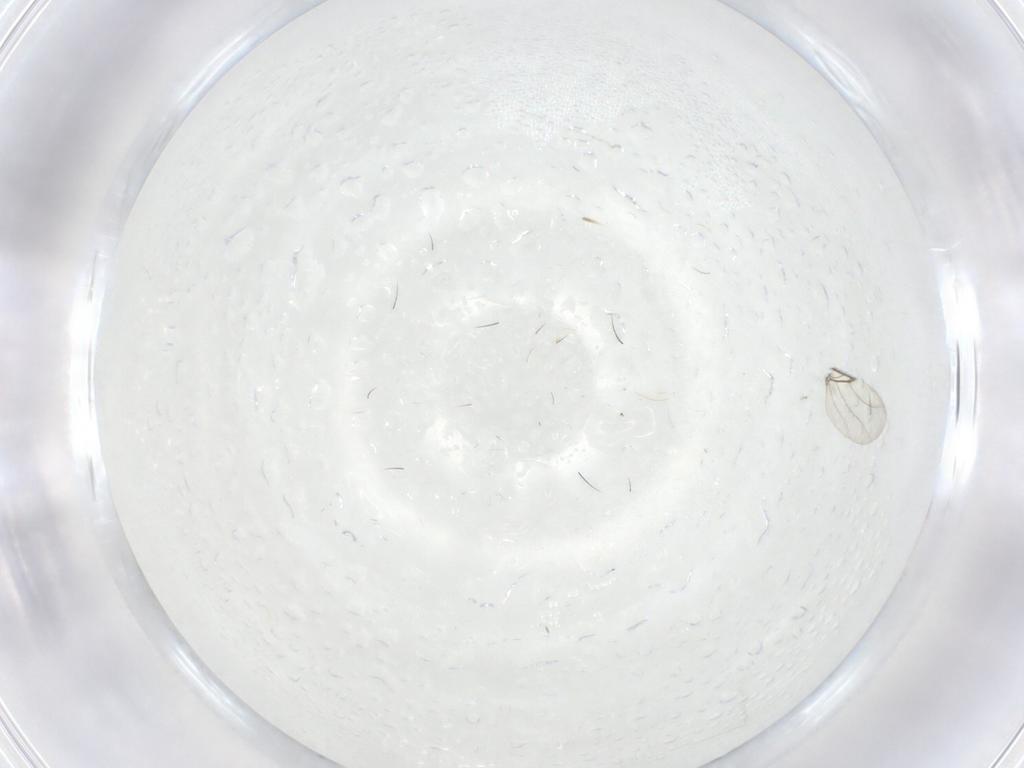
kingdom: Animalia
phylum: Arthropoda
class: Insecta
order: Diptera
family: Cecidomyiidae
